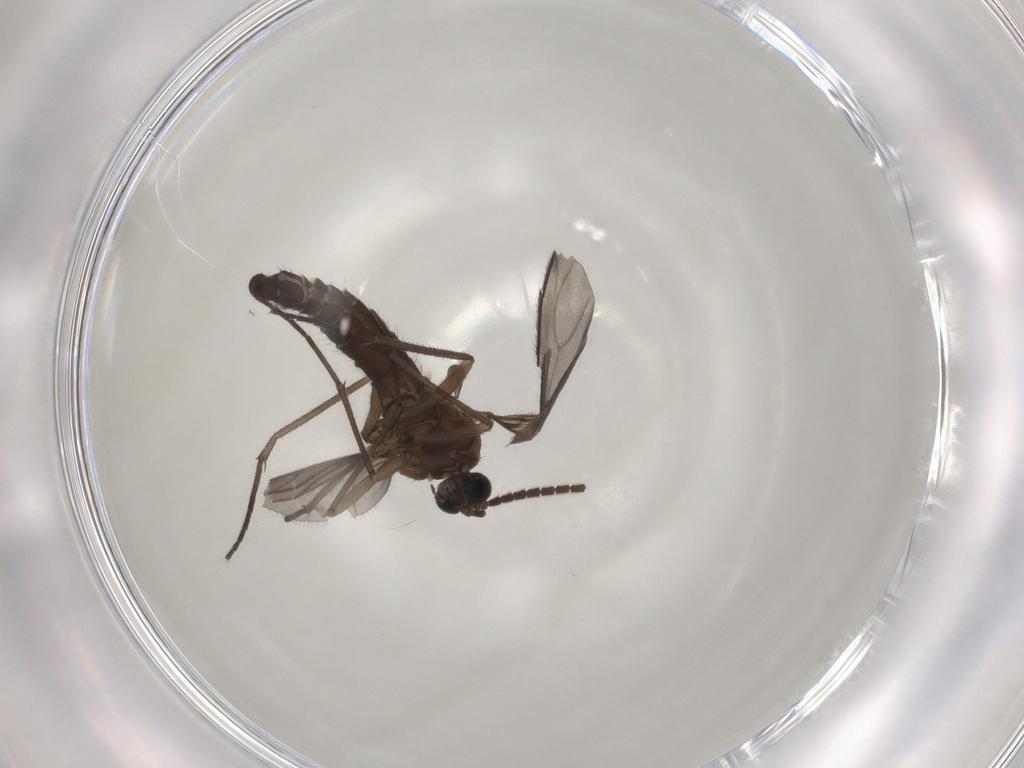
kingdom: Animalia
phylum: Arthropoda
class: Insecta
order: Diptera
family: Sciaridae
